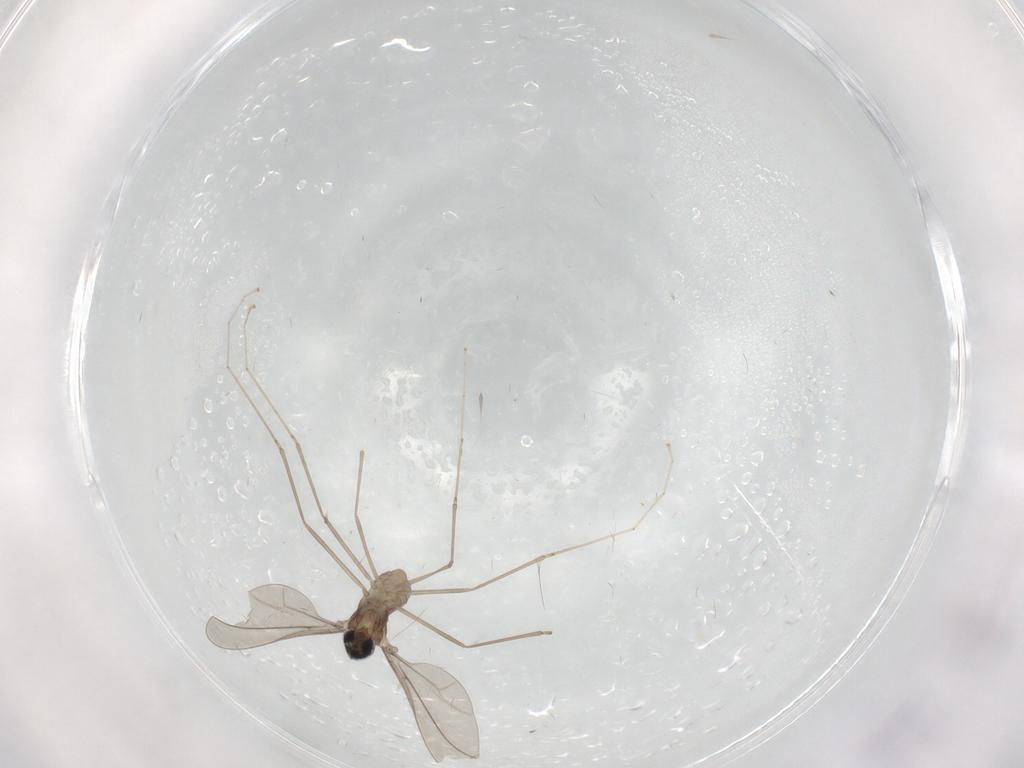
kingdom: Animalia
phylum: Arthropoda
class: Insecta
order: Diptera
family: Cecidomyiidae
